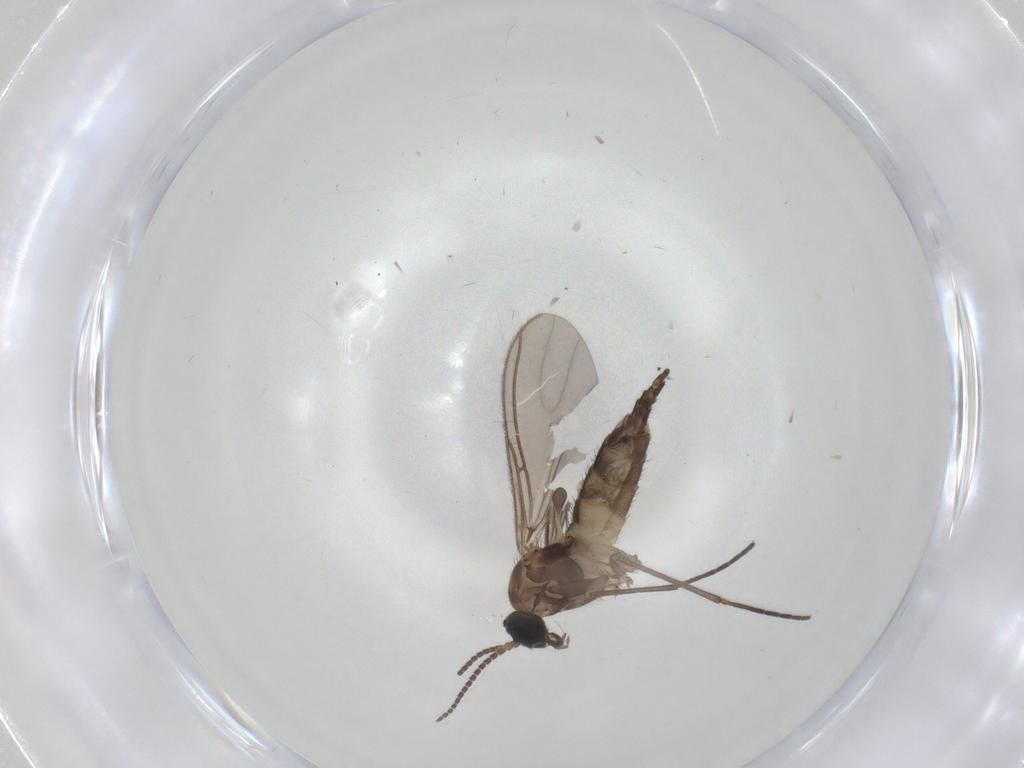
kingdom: Animalia
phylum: Arthropoda
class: Insecta
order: Diptera
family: Sciaridae
